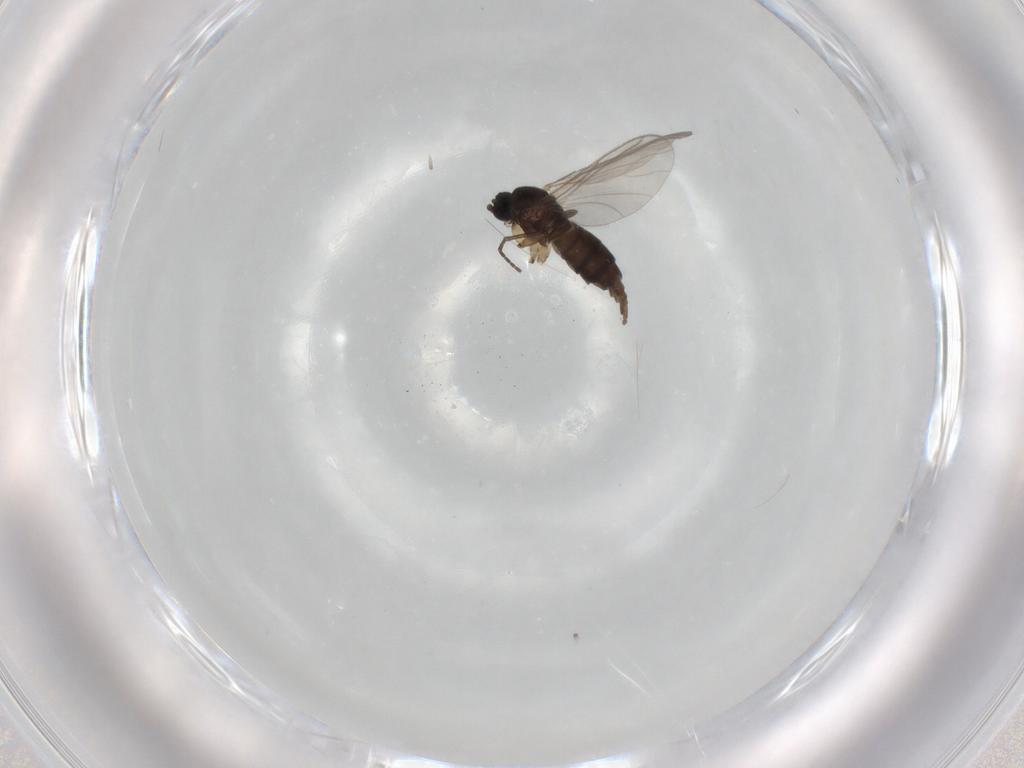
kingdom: Animalia
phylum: Arthropoda
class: Insecta
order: Diptera
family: Sciaridae
